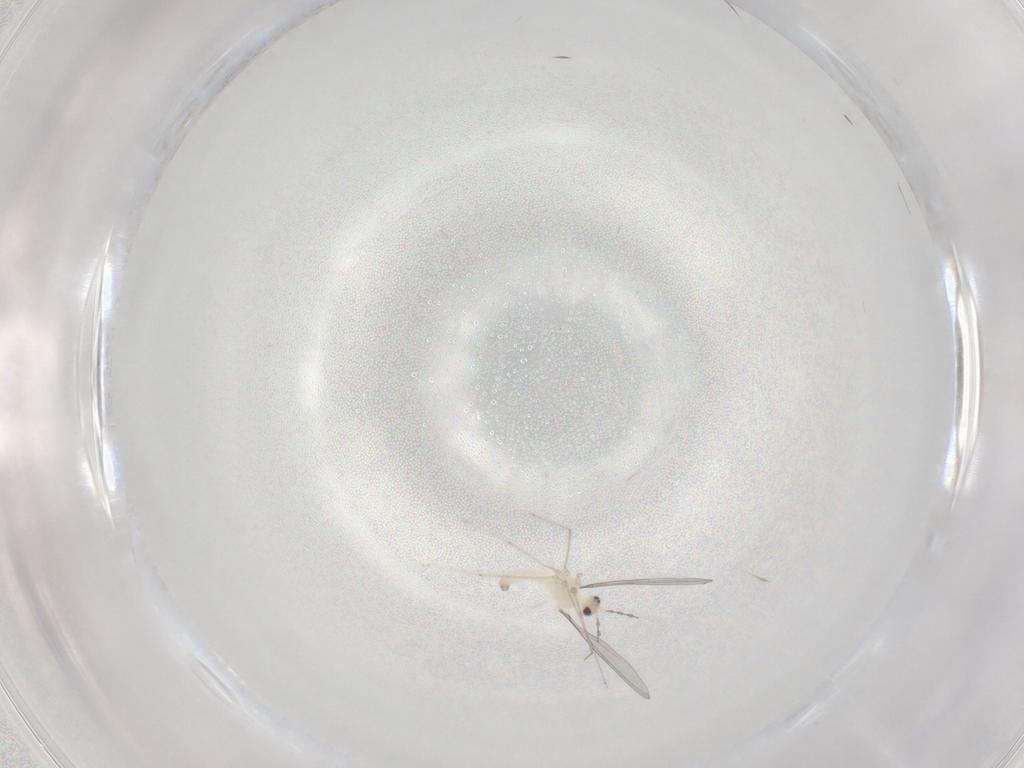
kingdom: Animalia
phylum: Arthropoda
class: Insecta
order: Diptera
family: Cecidomyiidae
